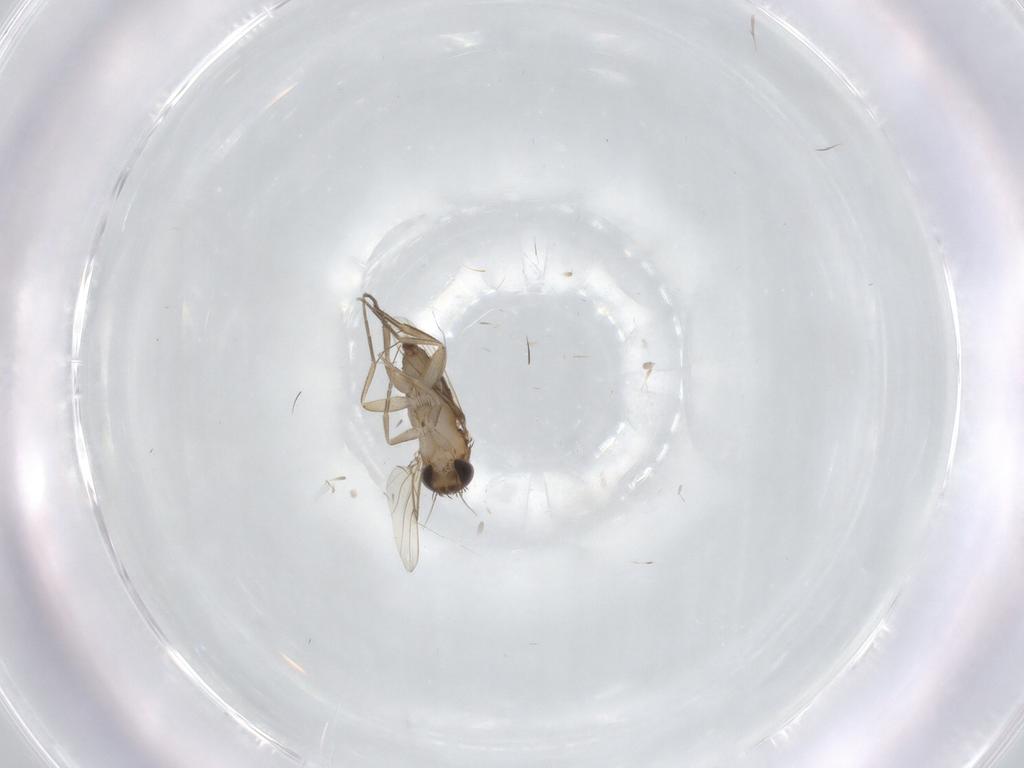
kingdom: Animalia
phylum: Arthropoda
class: Insecta
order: Diptera
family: Phoridae
